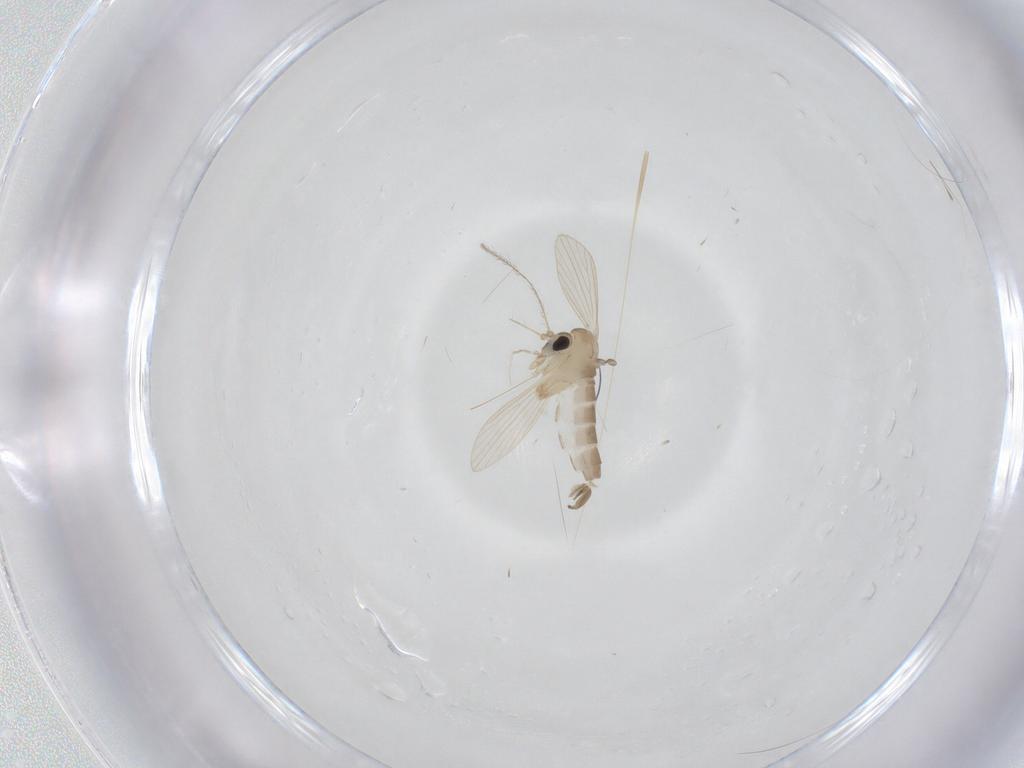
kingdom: Animalia
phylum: Arthropoda
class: Insecta
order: Diptera
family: Psychodidae
